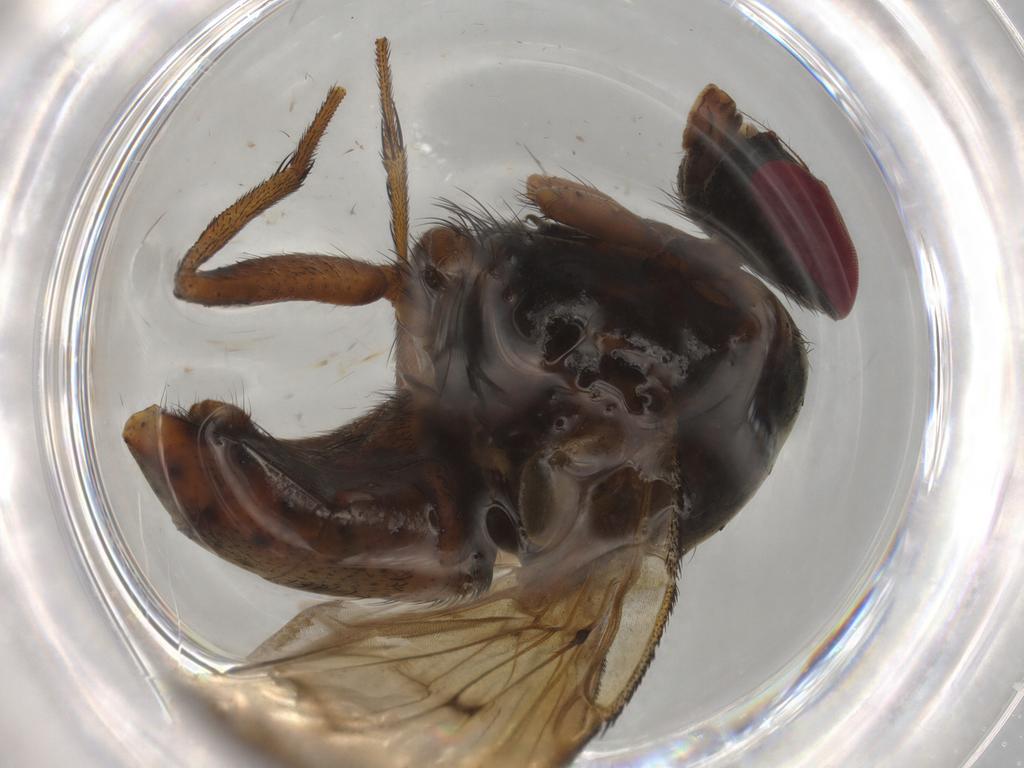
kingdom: Animalia
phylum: Arthropoda
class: Insecta
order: Diptera
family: Muscidae
